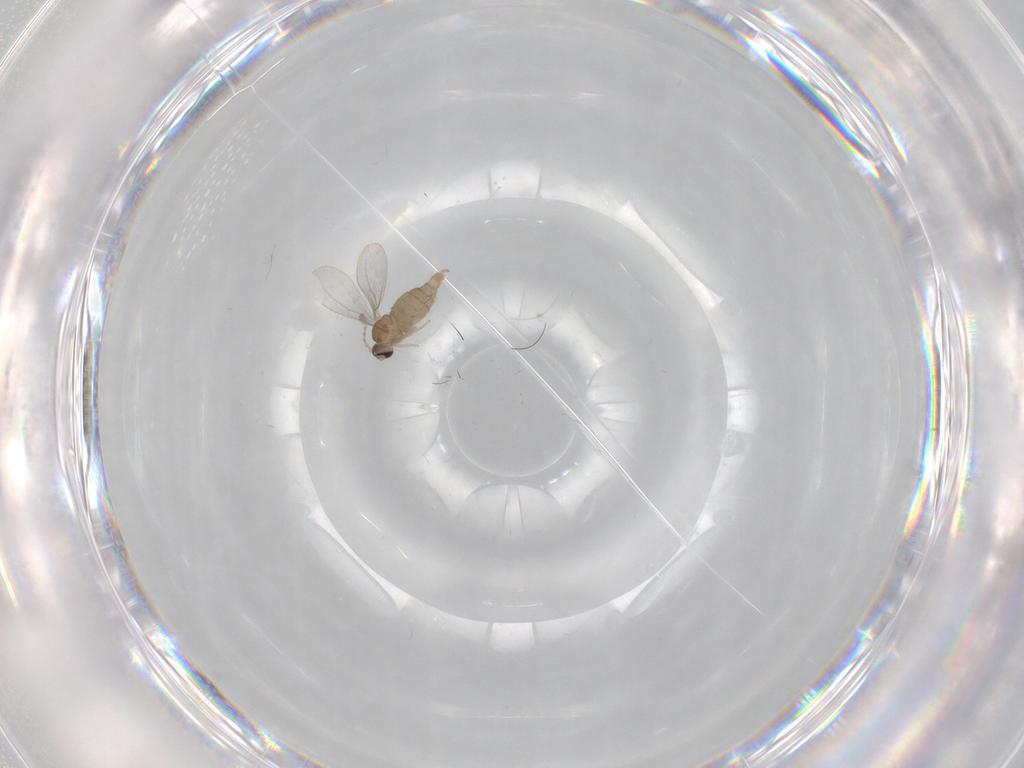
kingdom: Animalia
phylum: Arthropoda
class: Insecta
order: Diptera
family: Cecidomyiidae
